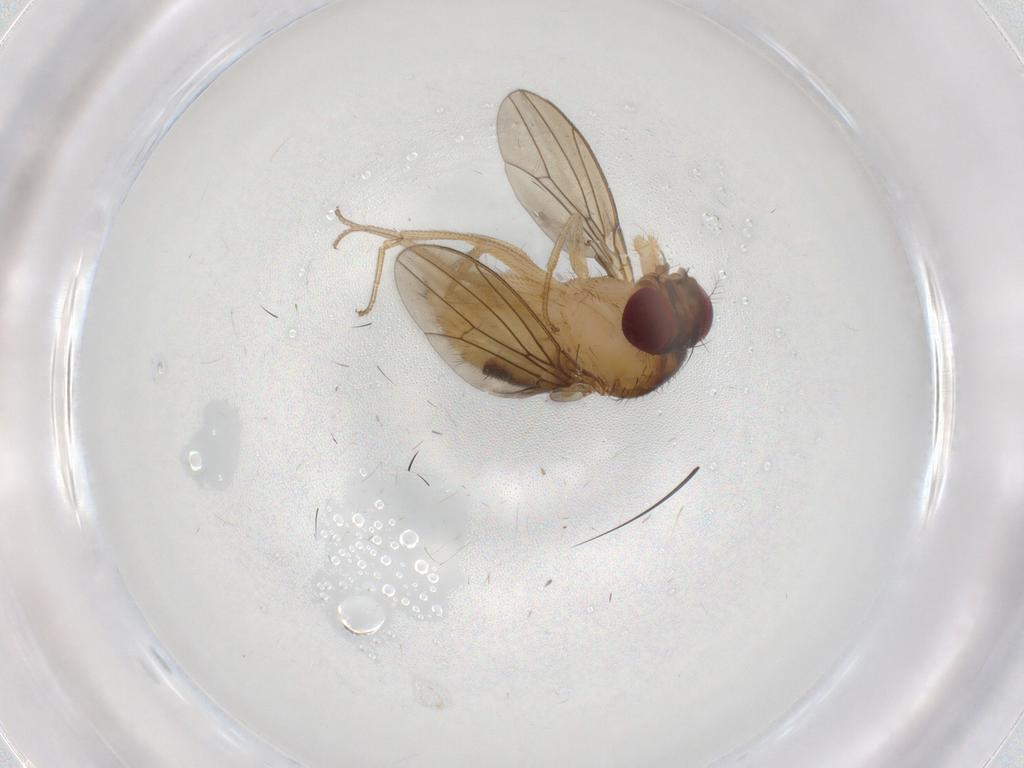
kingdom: Animalia
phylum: Arthropoda
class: Insecta
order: Diptera
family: Drosophilidae
